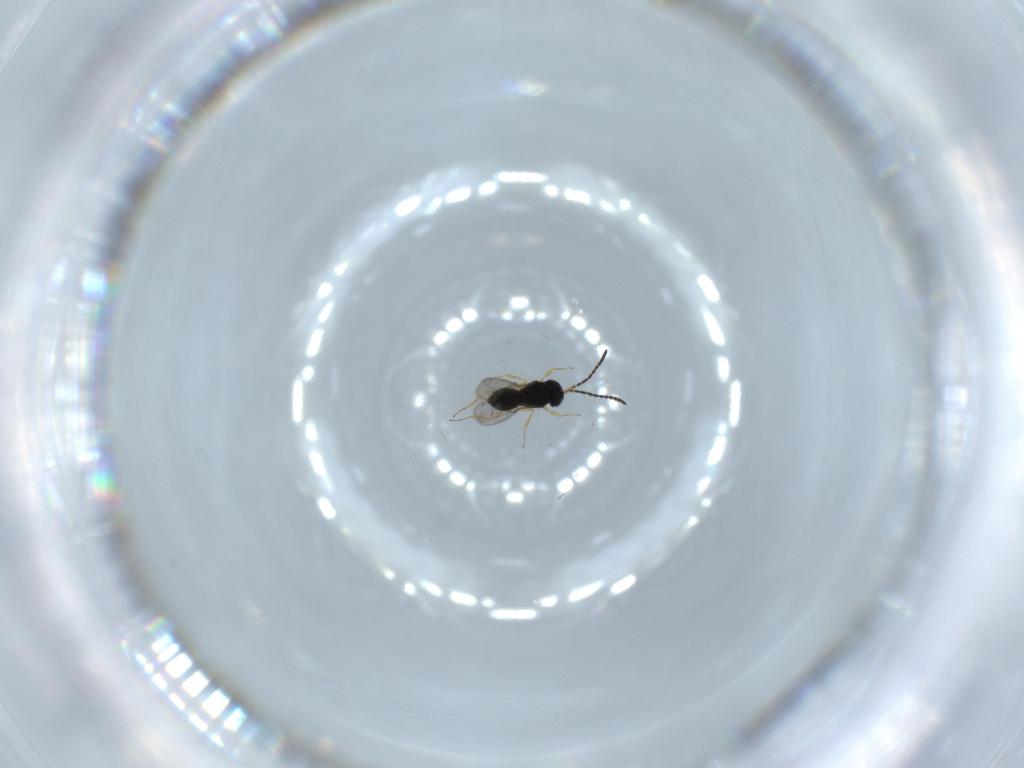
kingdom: Animalia
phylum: Arthropoda
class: Insecta
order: Hymenoptera
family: Scelionidae
